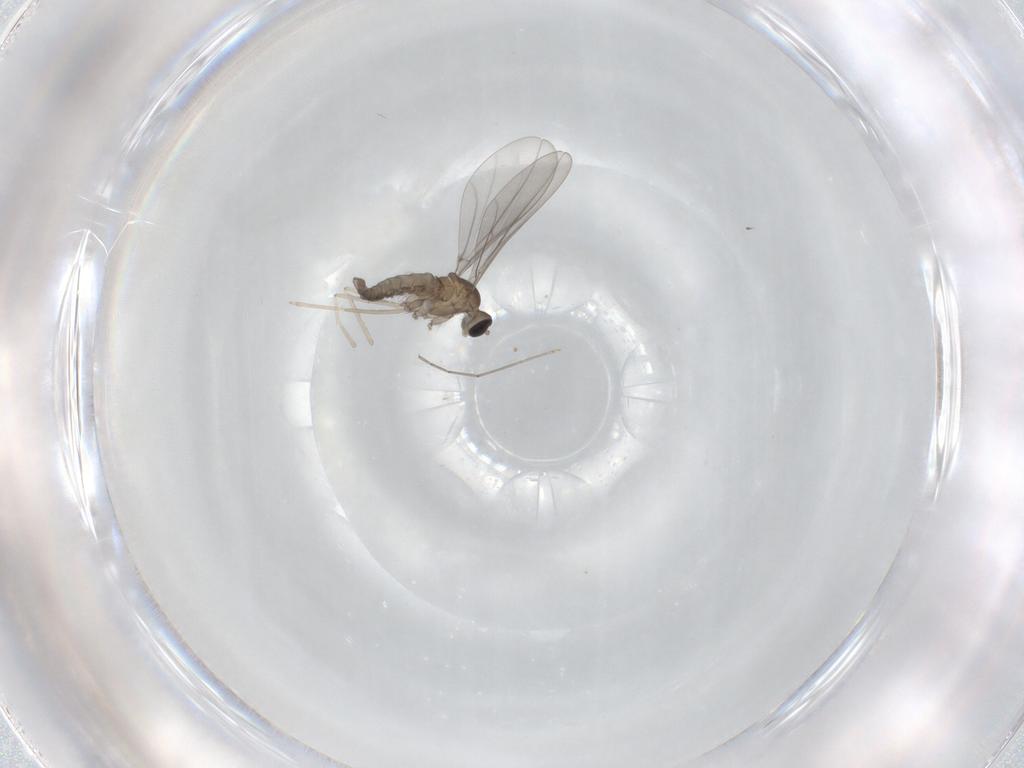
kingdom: Animalia
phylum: Arthropoda
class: Insecta
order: Diptera
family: Cecidomyiidae
